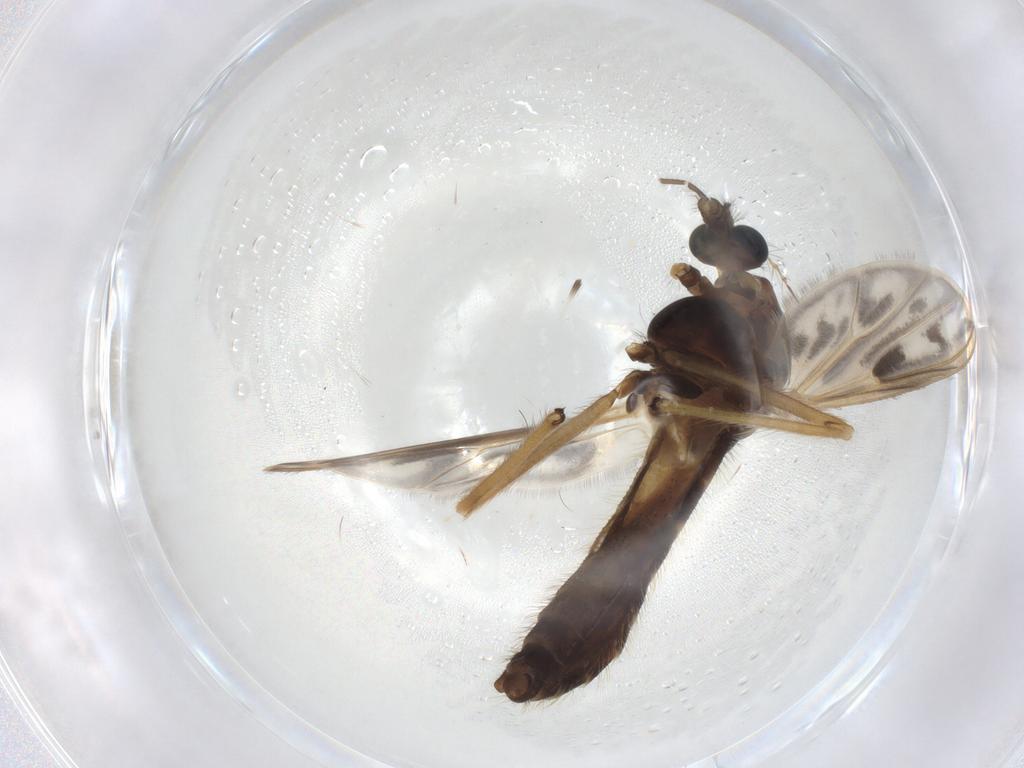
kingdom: Animalia
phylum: Arthropoda
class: Insecta
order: Diptera
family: Chironomidae
